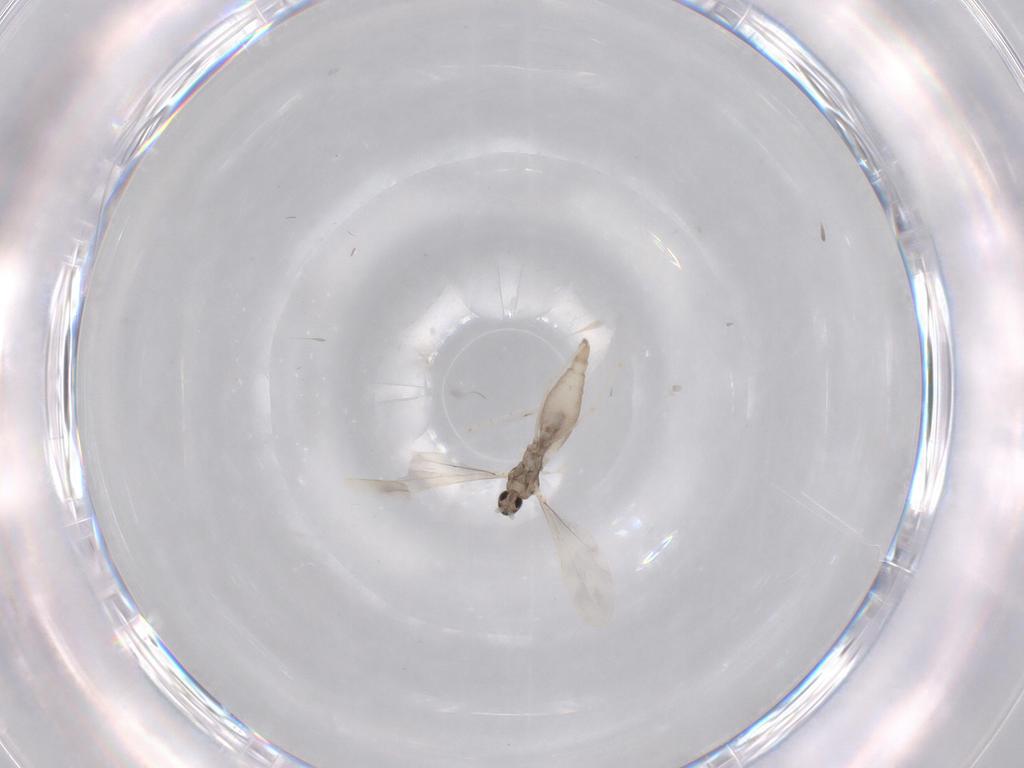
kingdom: Animalia
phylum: Arthropoda
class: Insecta
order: Diptera
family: Cecidomyiidae
